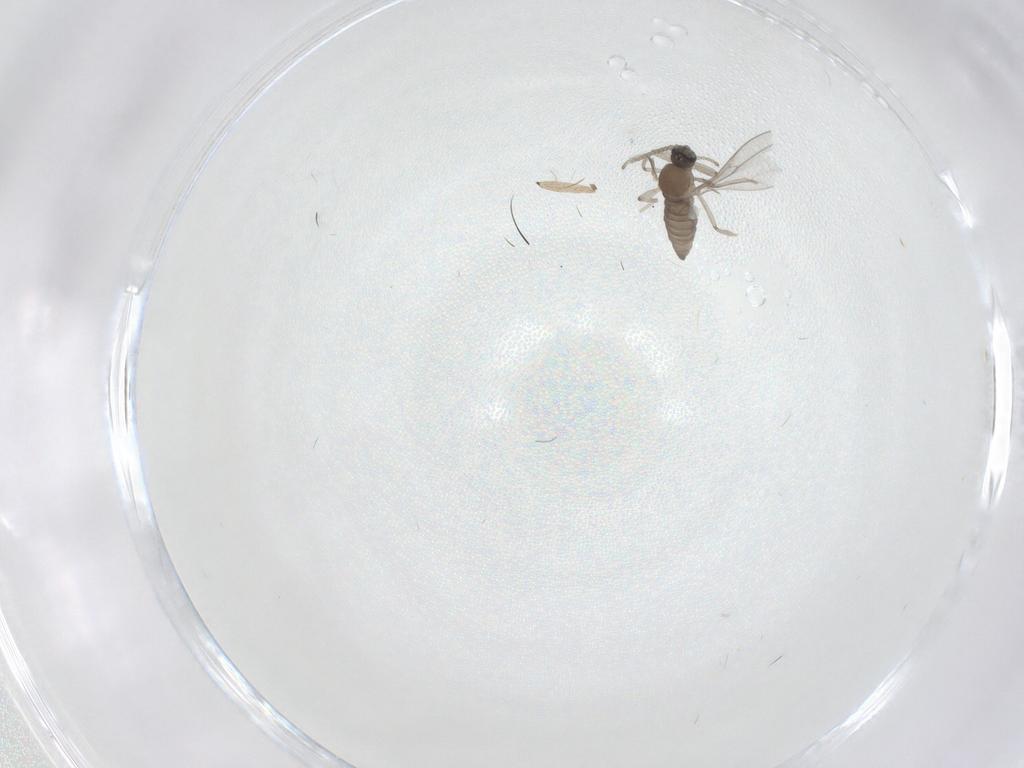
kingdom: Animalia
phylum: Arthropoda
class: Insecta
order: Diptera
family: Cecidomyiidae
